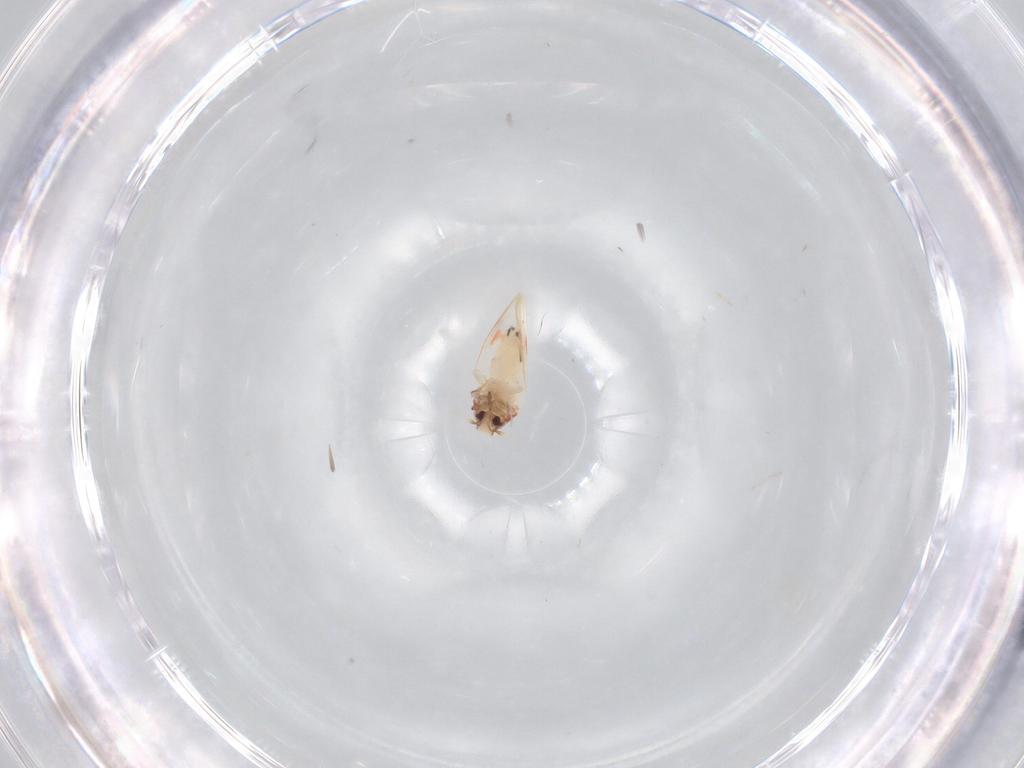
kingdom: Animalia
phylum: Arthropoda
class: Insecta
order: Hemiptera
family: Aleyrodidae
